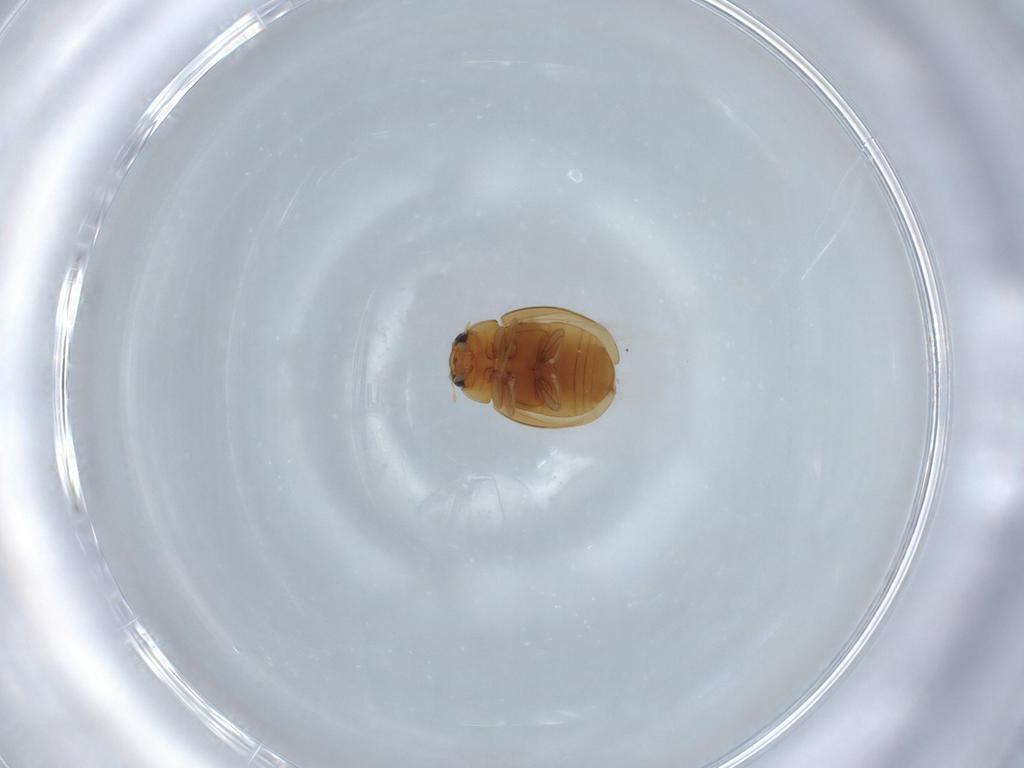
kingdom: Animalia
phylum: Arthropoda
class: Insecta
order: Coleoptera
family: Coccinellidae
